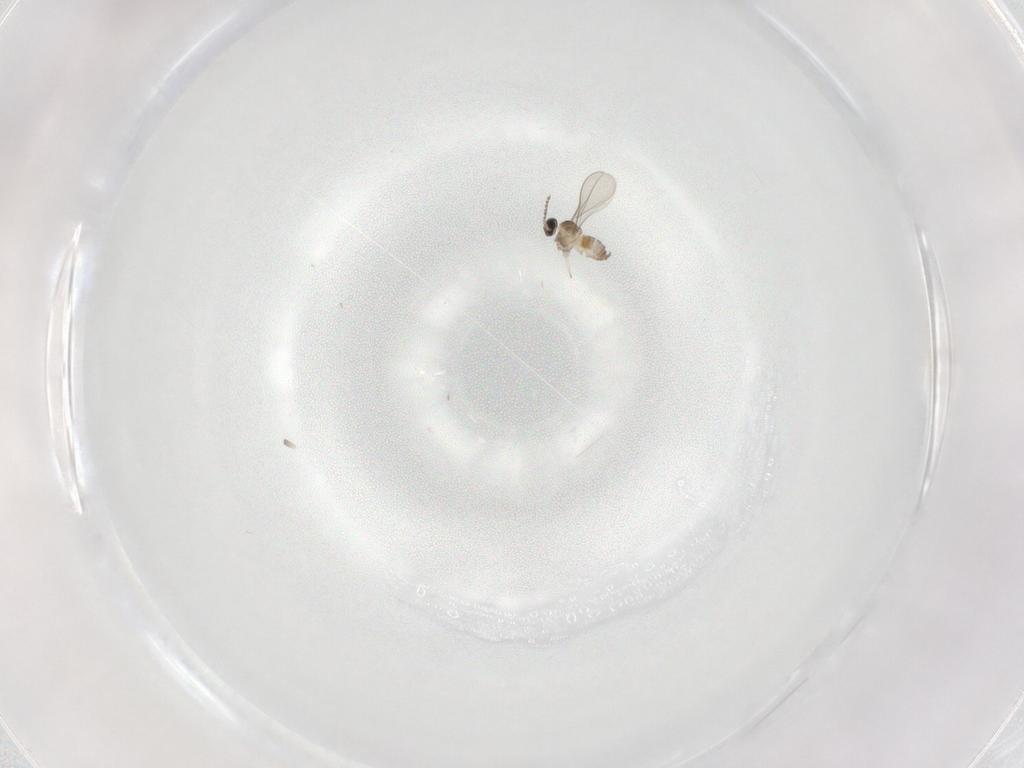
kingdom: Animalia
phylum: Arthropoda
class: Insecta
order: Diptera
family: Cecidomyiidae
